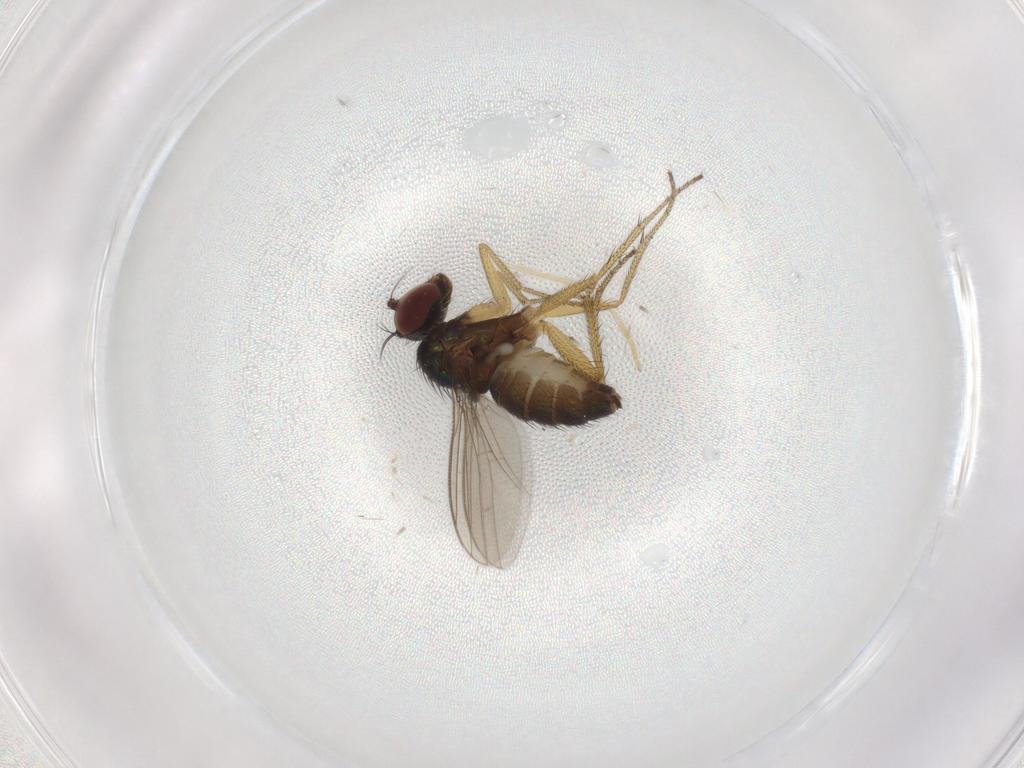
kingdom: Animalia
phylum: Arthropoda
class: Insecta
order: Diptera
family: Dolichopodidae
